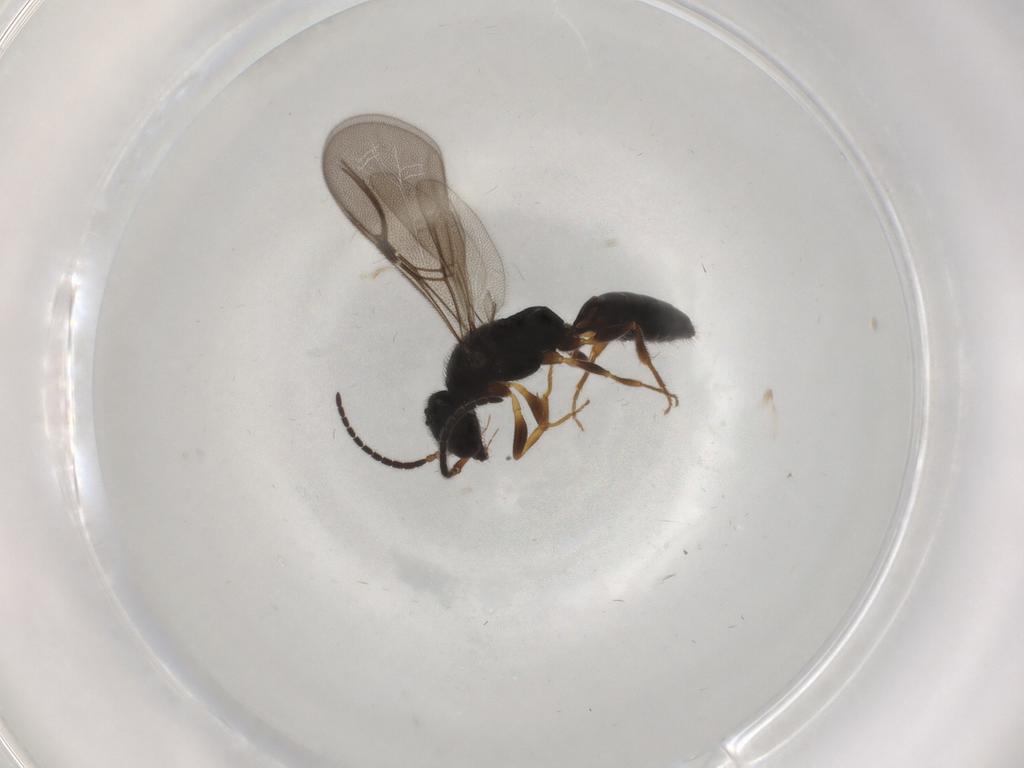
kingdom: Animalia
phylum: Arthropoda
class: Insecta
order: Hymenoptera
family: Bethylidae
